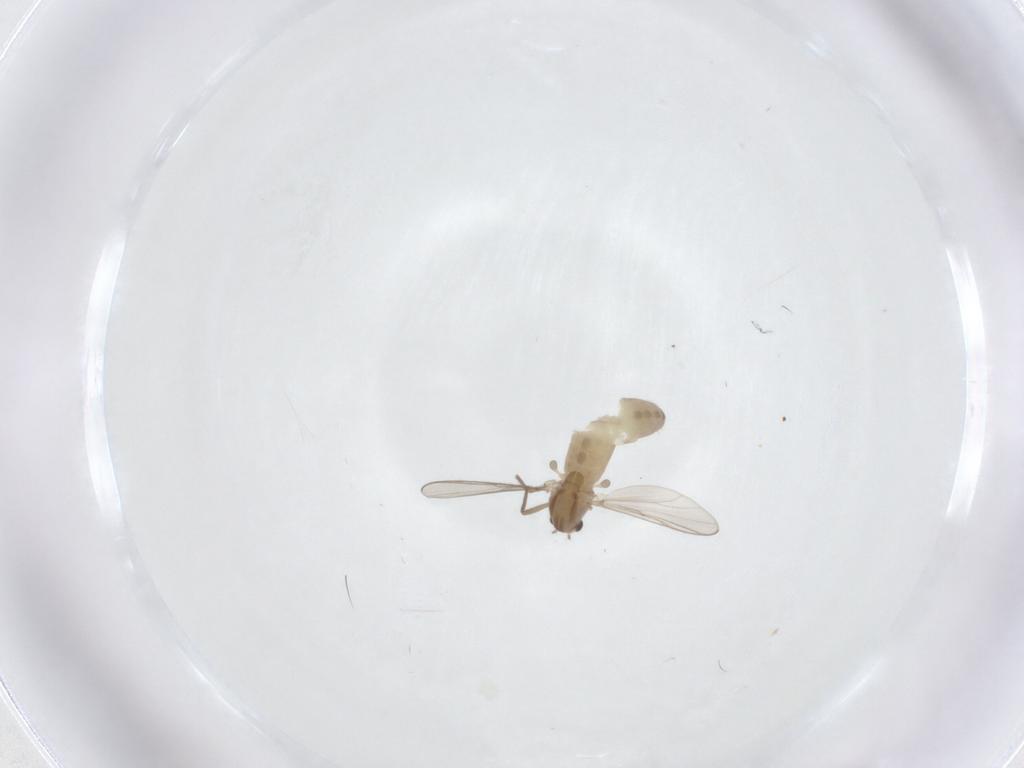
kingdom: Animalia
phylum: Arthropoda
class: Insecta
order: Diptera
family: Chironomidae
